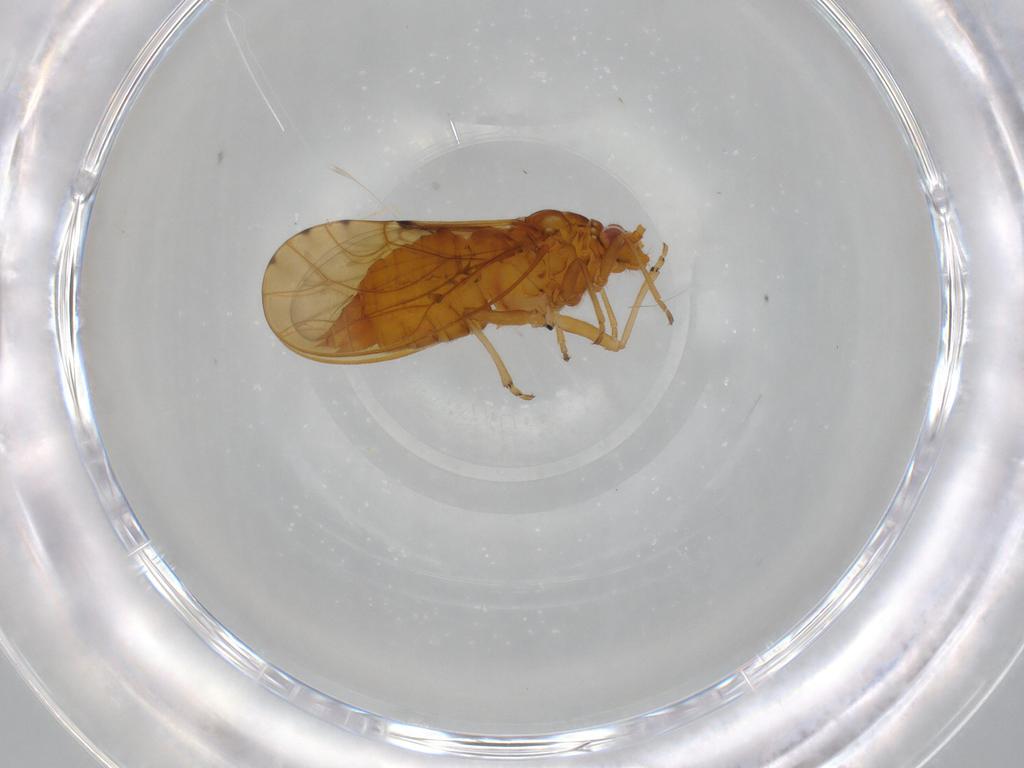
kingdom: Animalia
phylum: Arthropoda
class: Insecta
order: Hemiptera
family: Psylloidea_incertae_sedis
